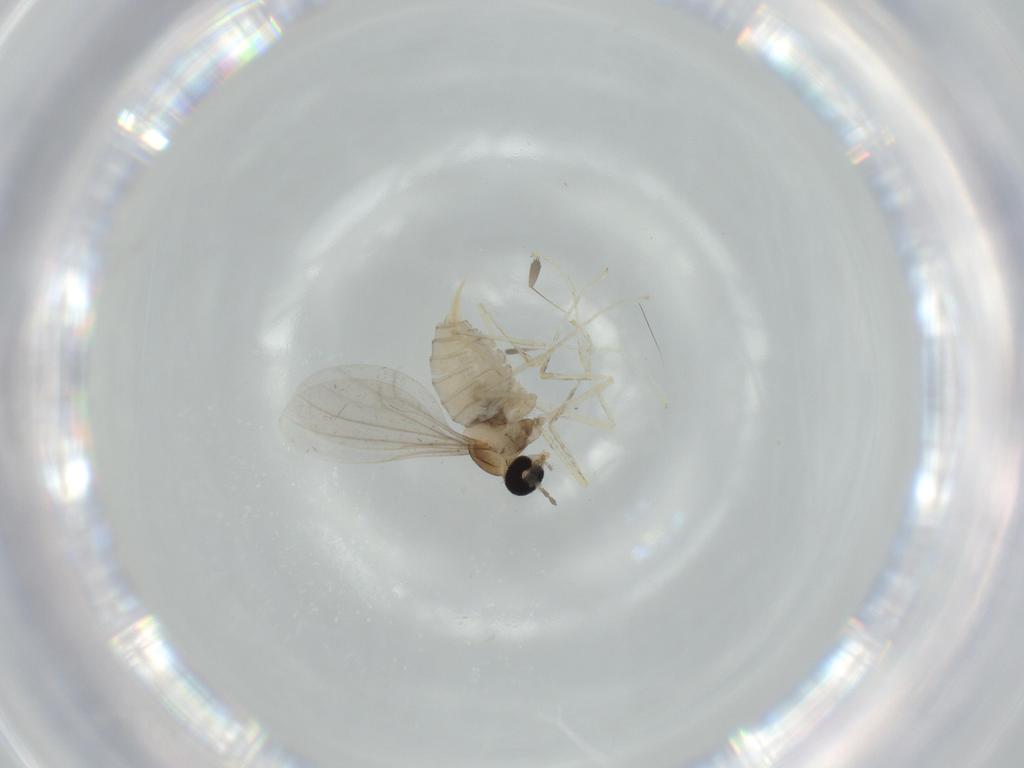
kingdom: Animalia
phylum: Arthropoda
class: Insecta
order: Diptera
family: Cecidomyiidae
